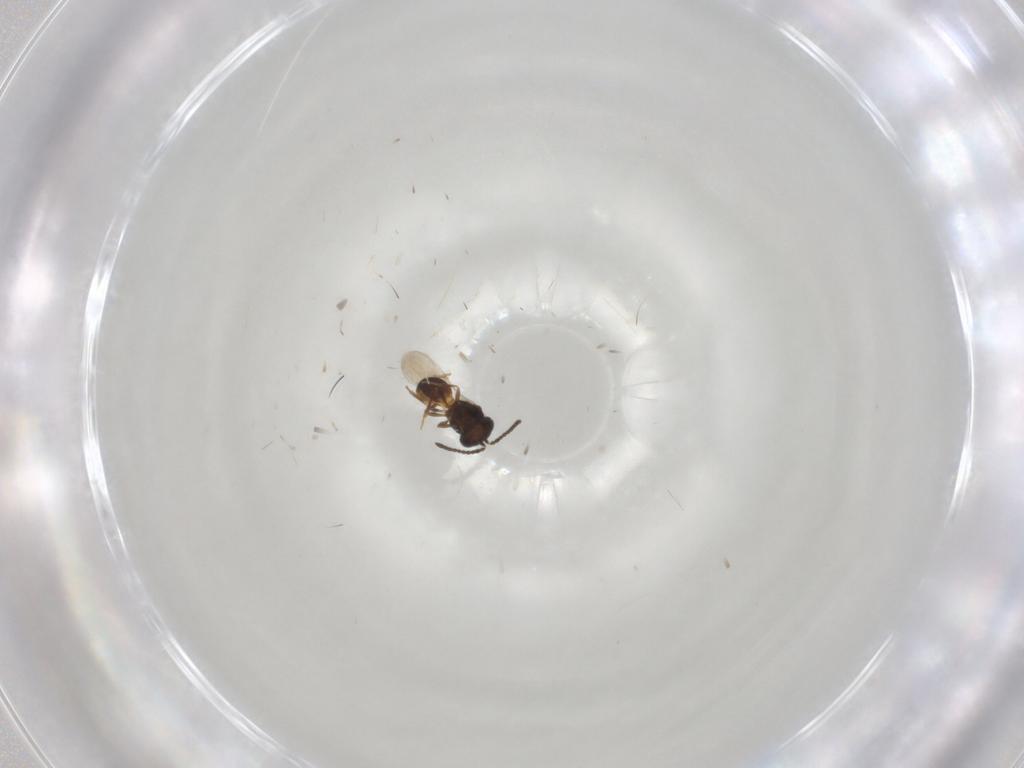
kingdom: Animalia
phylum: Arthropoda
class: Insecta
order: Hymenoptera
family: Scelionidae
